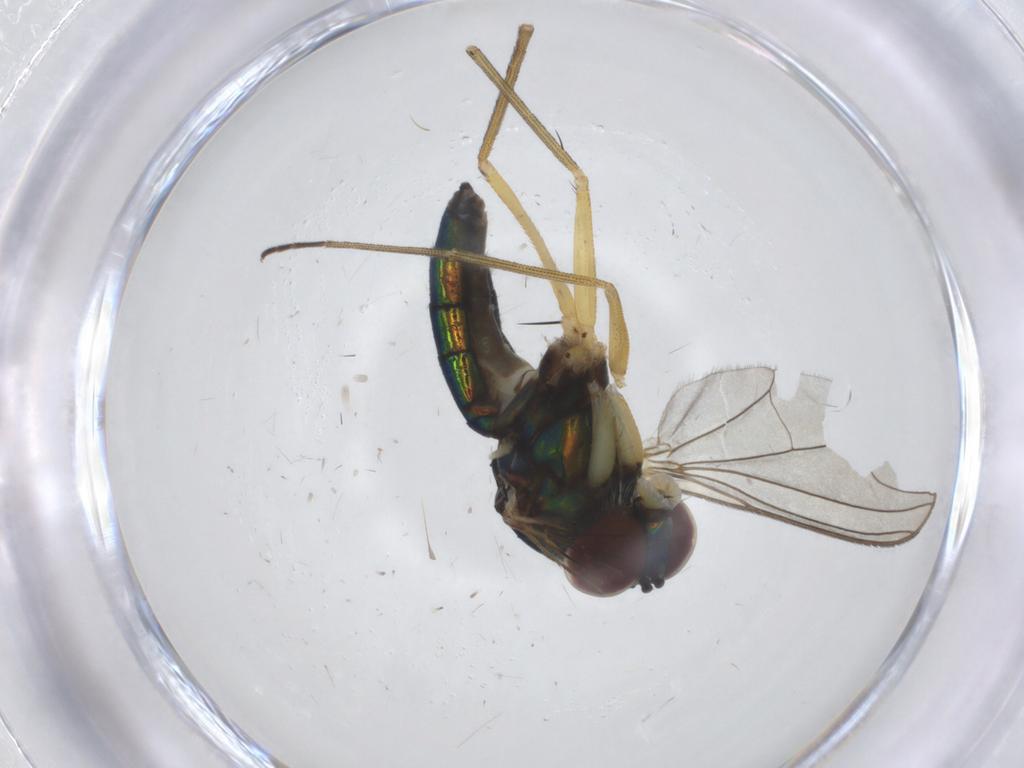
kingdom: Animalia
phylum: Arthropoda
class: Insecta
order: Diptera
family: Dolichopodidae
